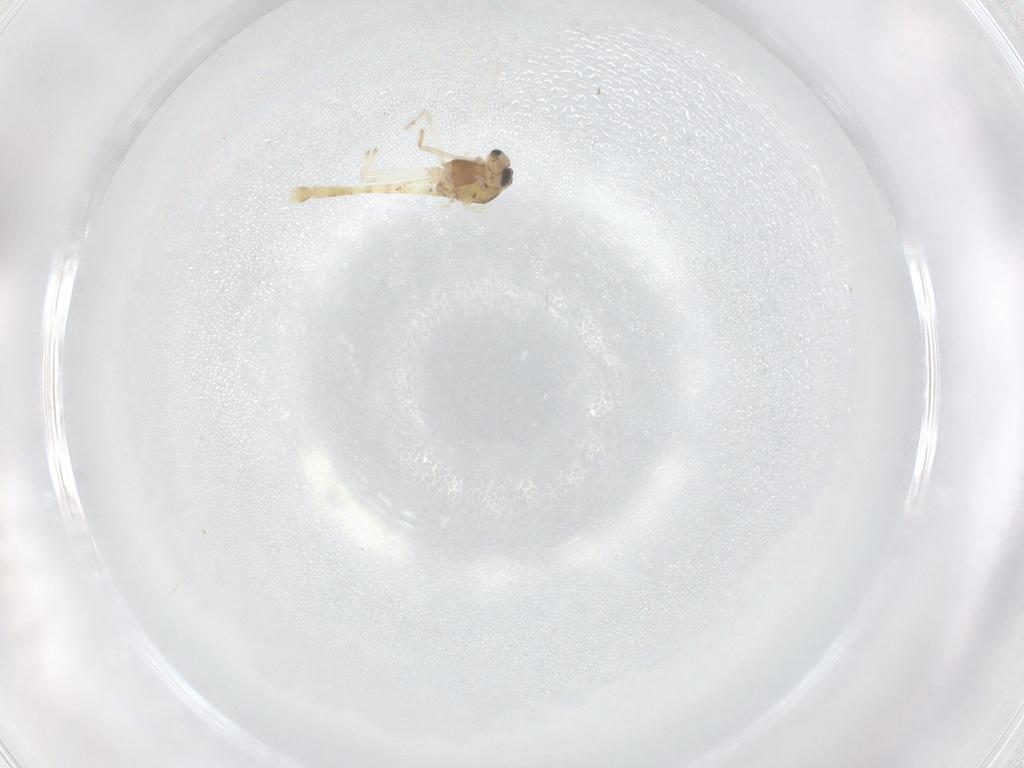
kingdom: Animalia
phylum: Arthropoda
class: Insecta
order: Diptera
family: Chironomidae
